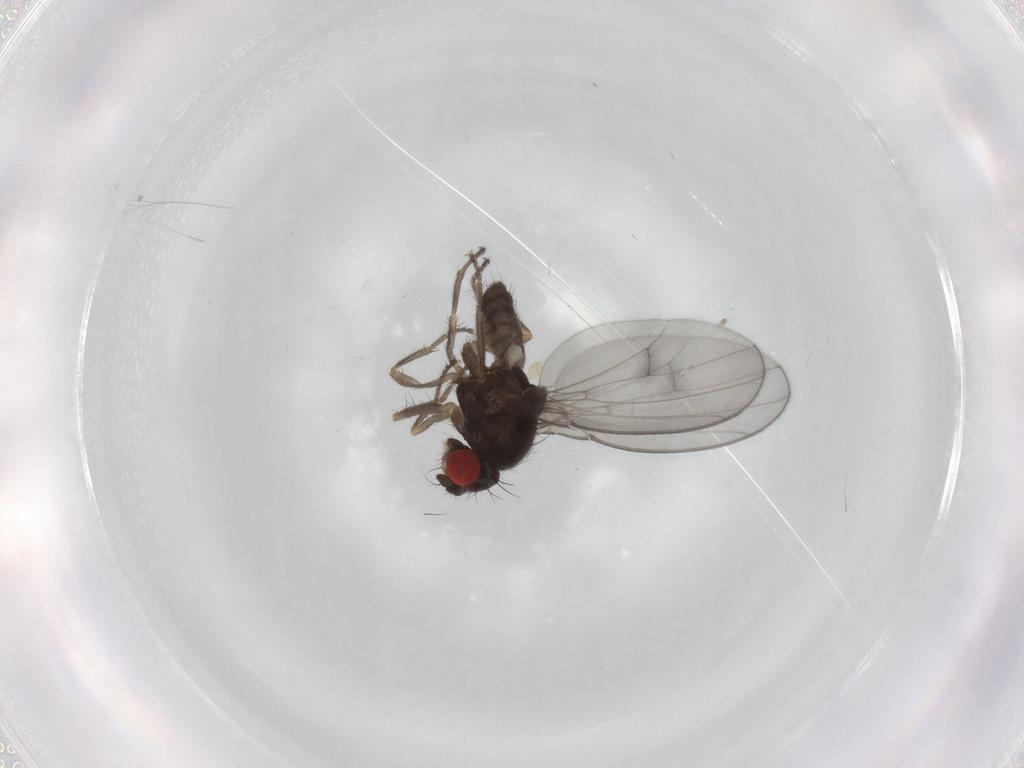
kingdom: Animalia
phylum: Arthropoda
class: Insecta
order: Diptera
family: Drosophilidae
